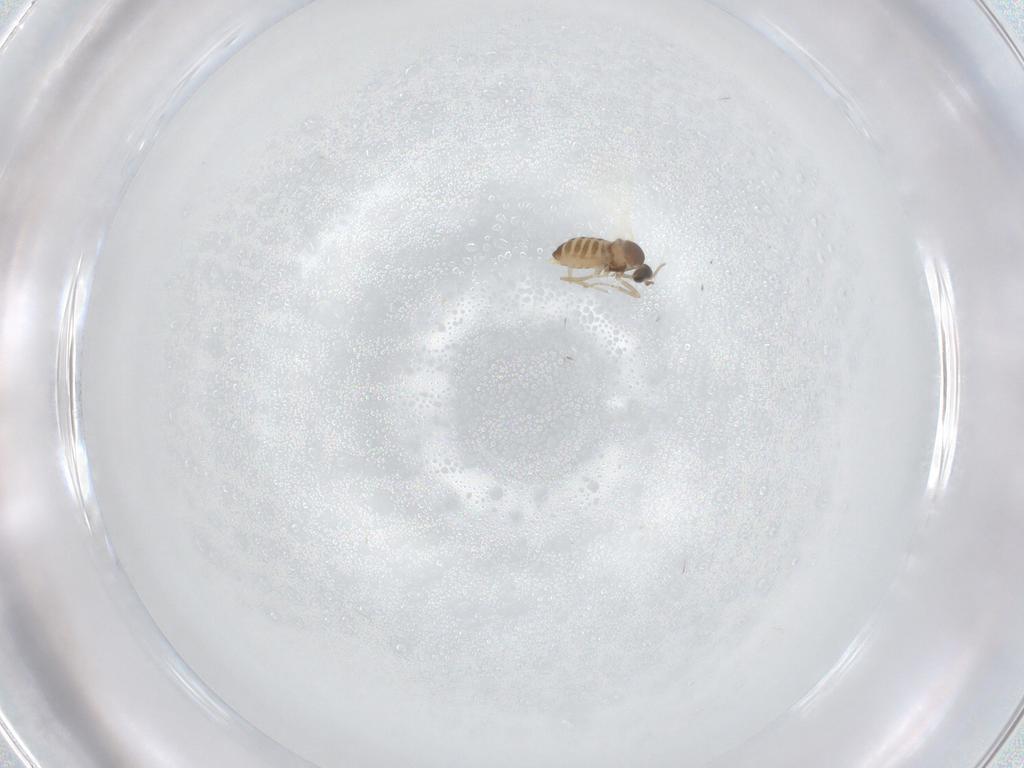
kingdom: Animalia
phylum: Arthropoda
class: Insecta
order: Diptera
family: Cecidomyiidae
